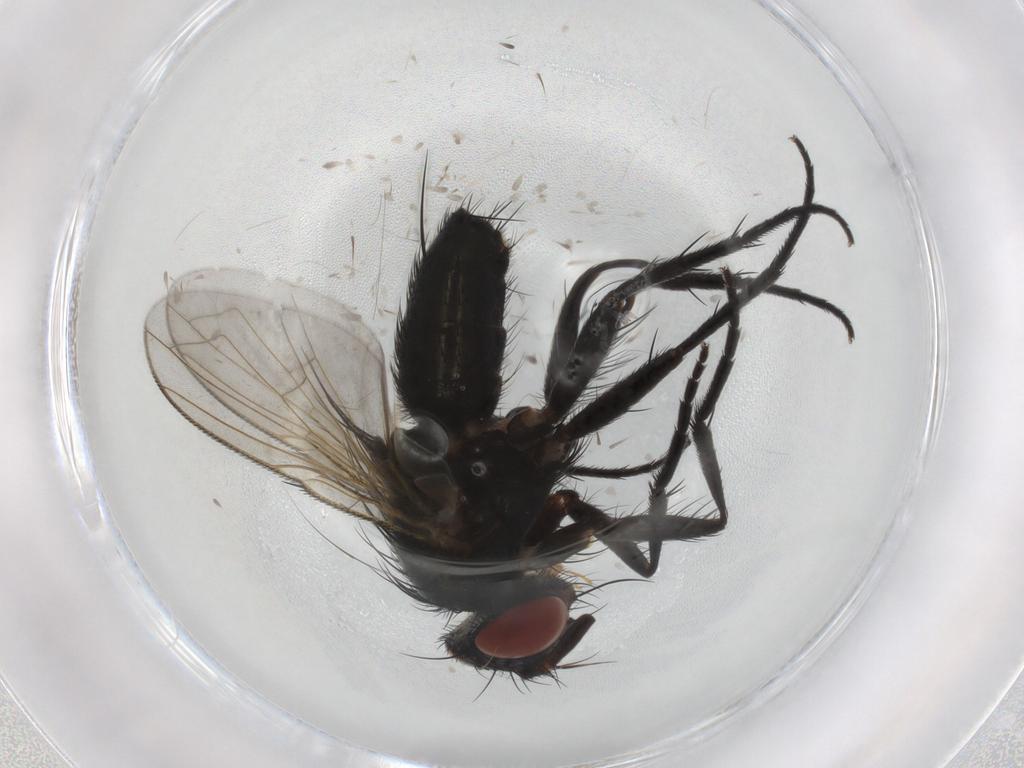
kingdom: Animalia
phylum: Arthropoda
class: Insecta
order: Diptera
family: Tachinidae
